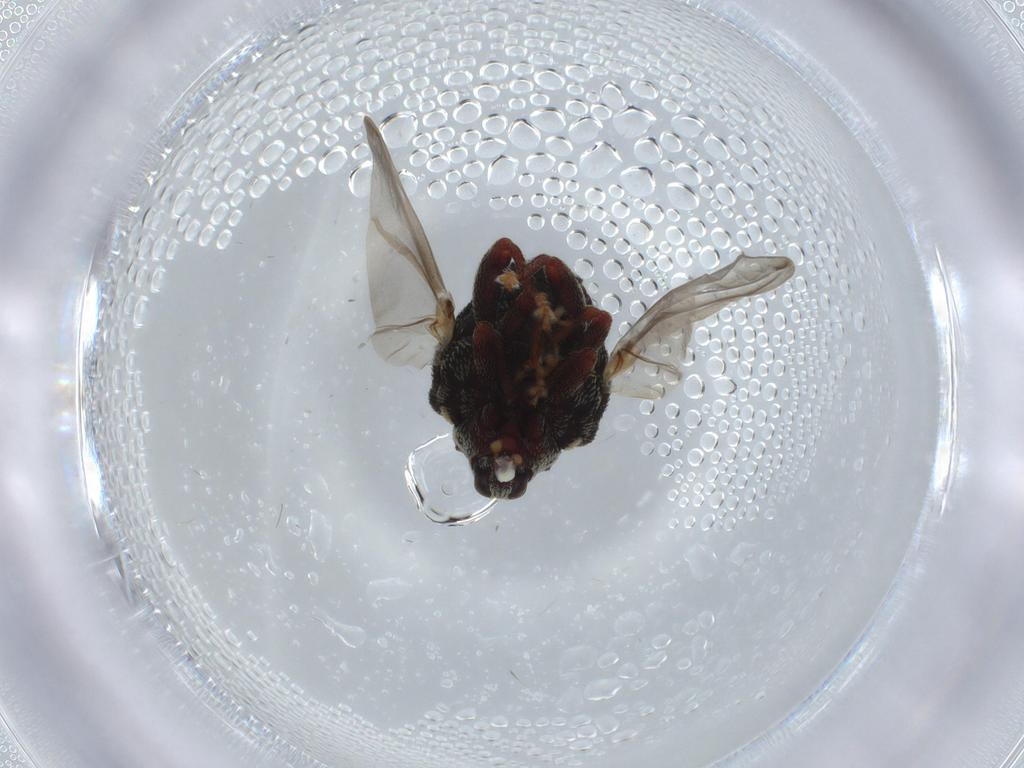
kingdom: Animalia
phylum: Arthropoda
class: Insecta
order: Coleoptera
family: Curculionidae
